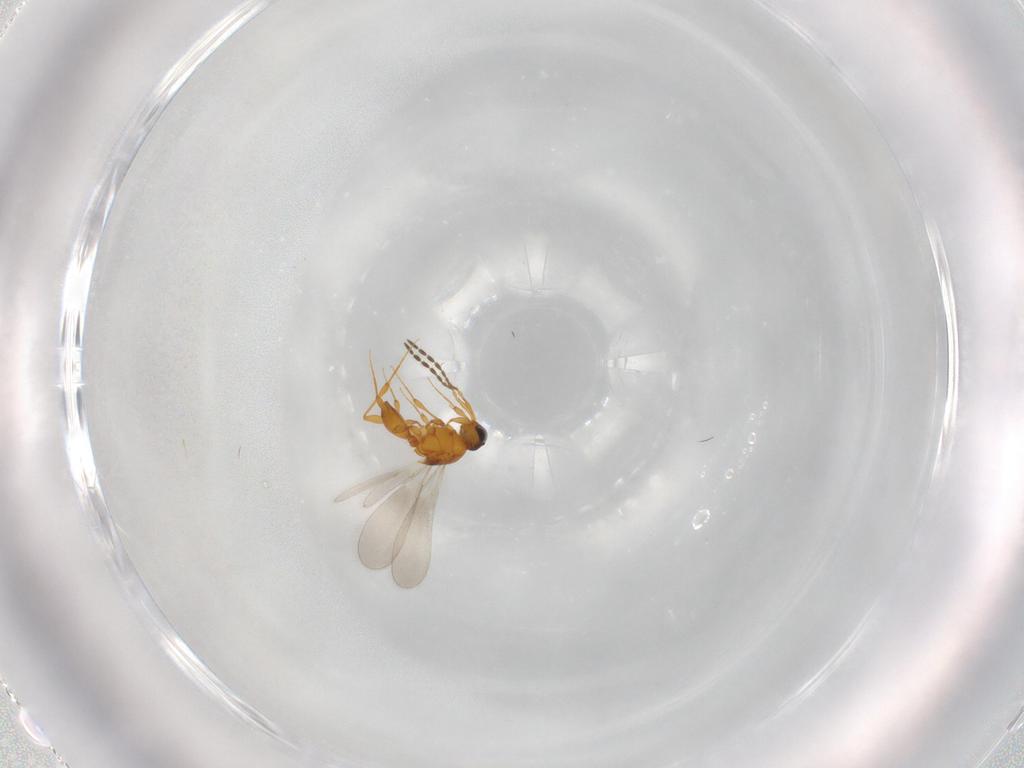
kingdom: Animalia
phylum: Arthropoda
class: Insecta
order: Hymenoptera
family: Platygastridae
